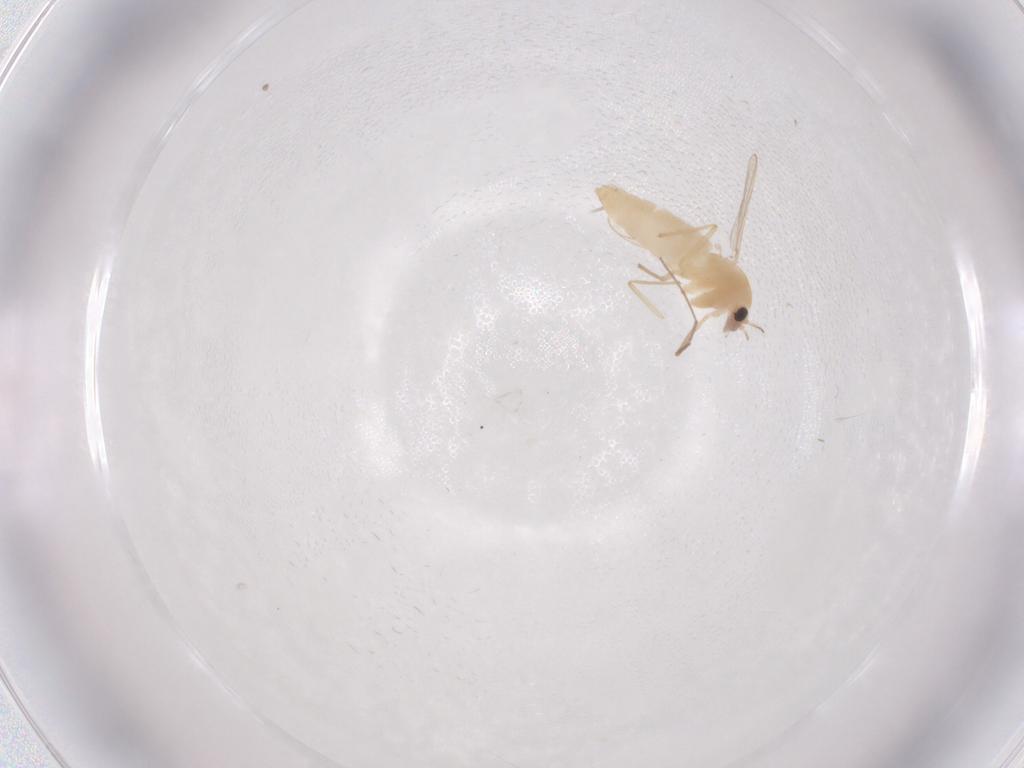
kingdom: Animalia
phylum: Arthropoda
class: Insecta
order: Diptera
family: Chironomidae
